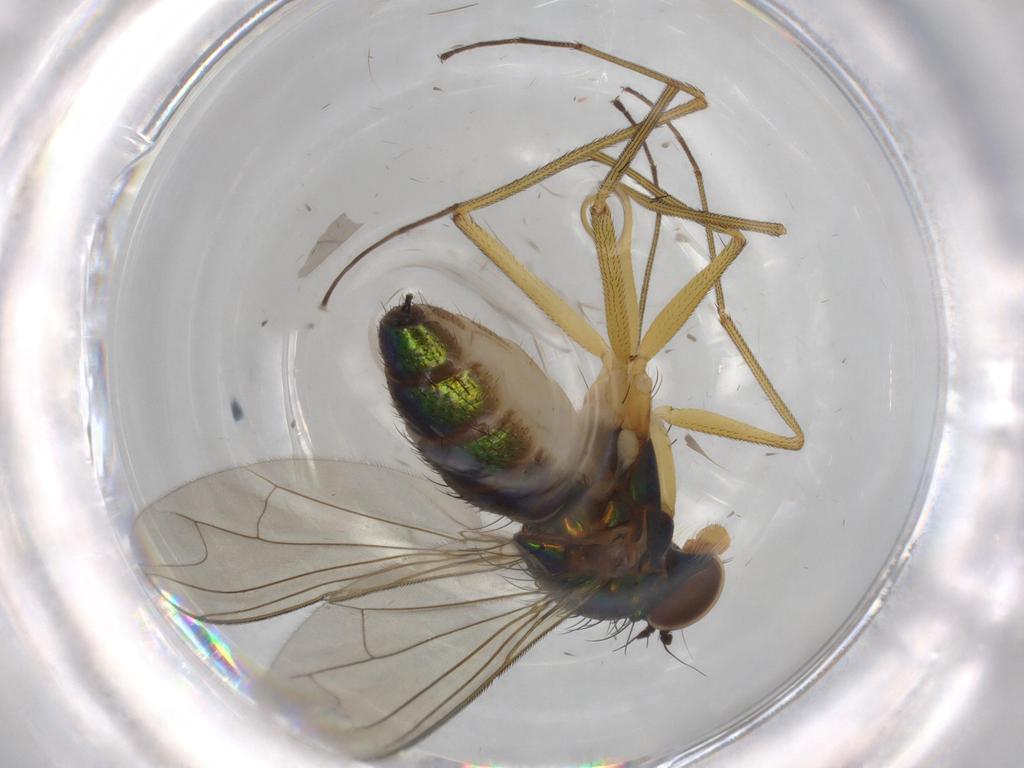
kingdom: Animalia
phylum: Arthropoda
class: Insecta
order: Diptera
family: Dolichopodidae
